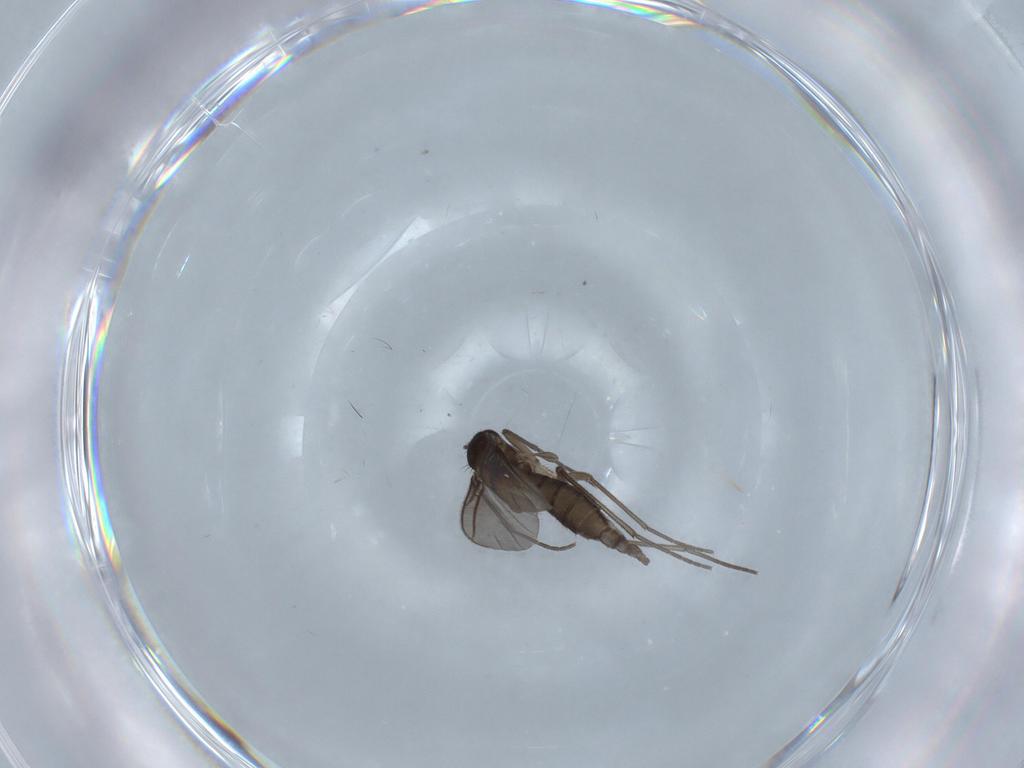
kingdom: Animalia
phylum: Arthropoda
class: Insecta
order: Diptera
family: Sciaridae
